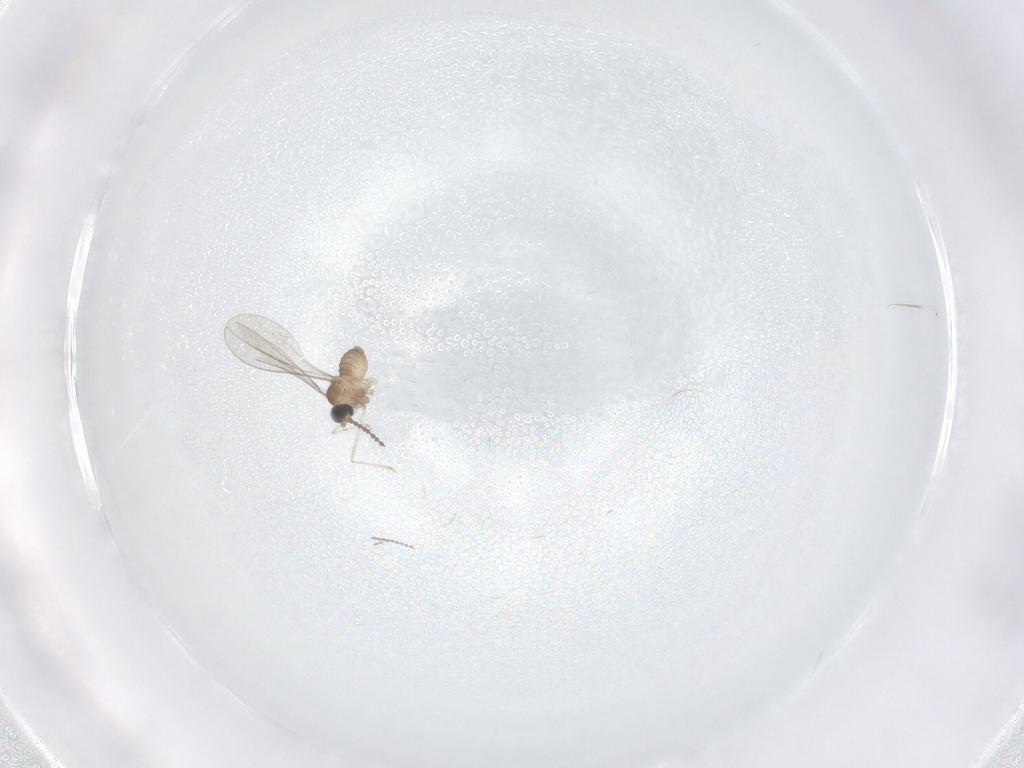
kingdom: Animalia
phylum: Arthropoda
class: Insecta
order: Diptera
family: Cecidomyiidae
